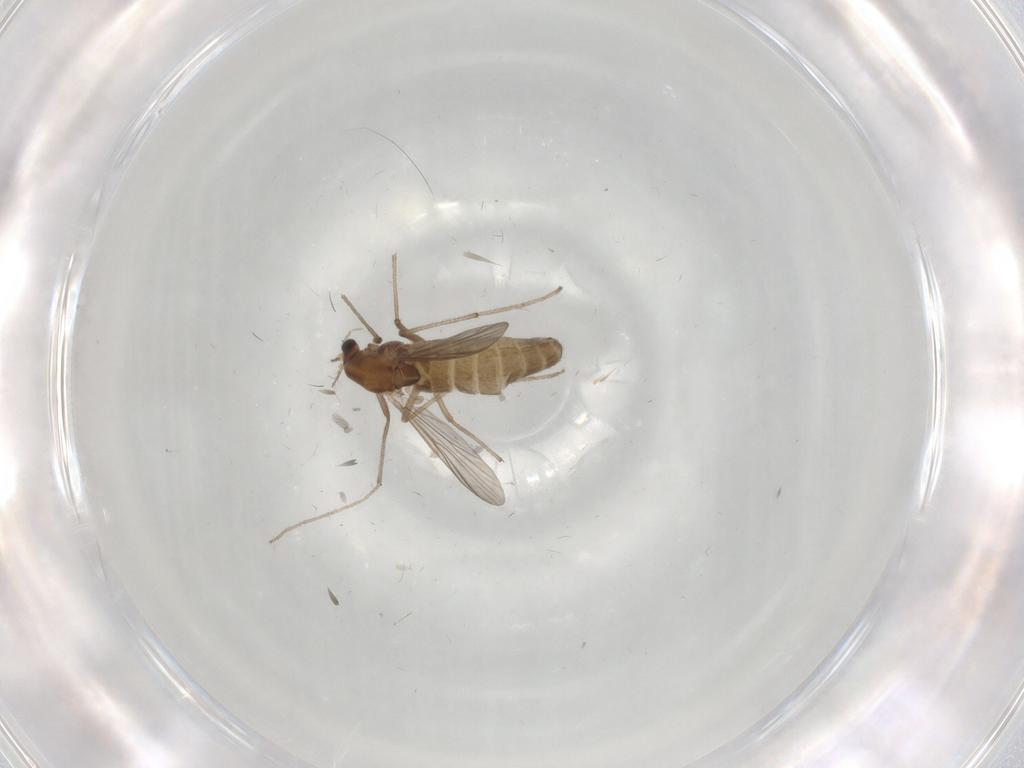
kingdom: Animalia
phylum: Arthropoda
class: Insecta
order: Diptera
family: Chironomidae
